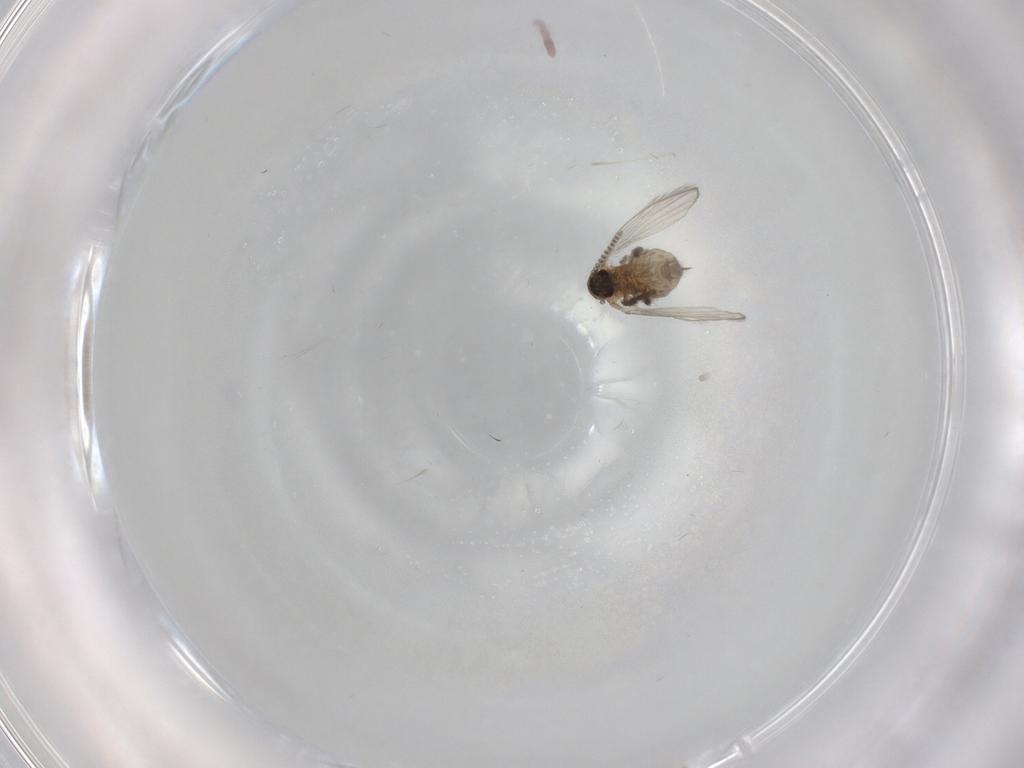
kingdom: Animalia
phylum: Arthropoda
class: Insecta
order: Diptera
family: Psychodidae
